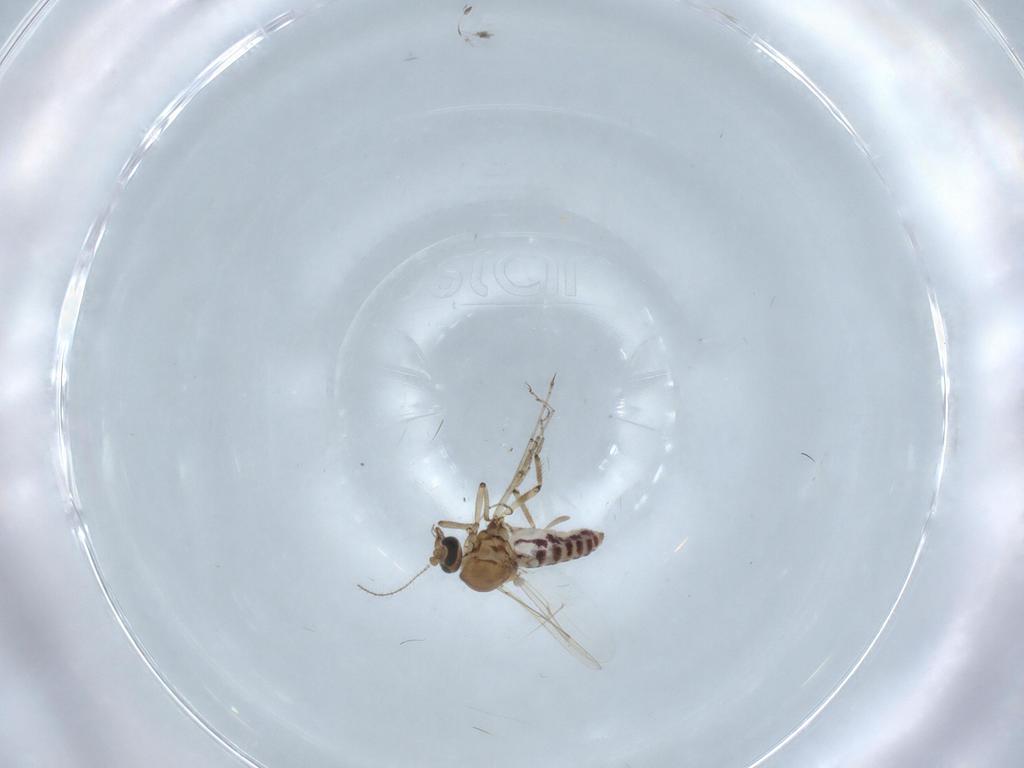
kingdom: Animalia
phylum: Arthropoda
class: Insecta
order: Diptera
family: Ceratopogonidae
